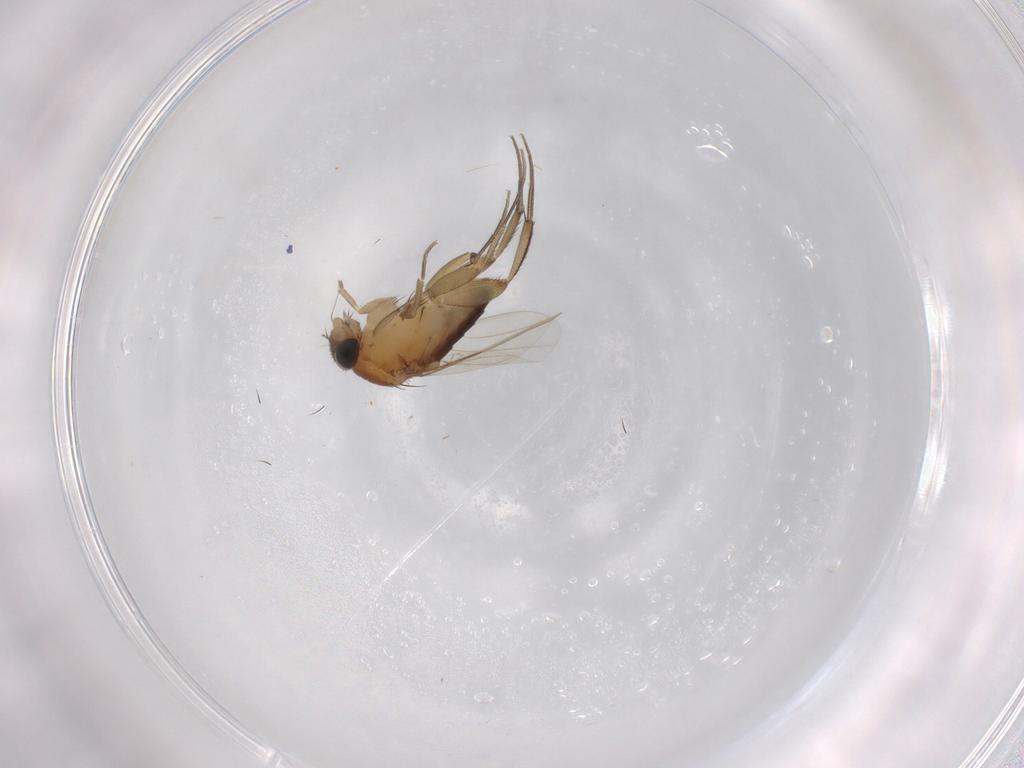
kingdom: Animalia
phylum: Arthropoda
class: Insecta
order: Diptera
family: Phoridae
